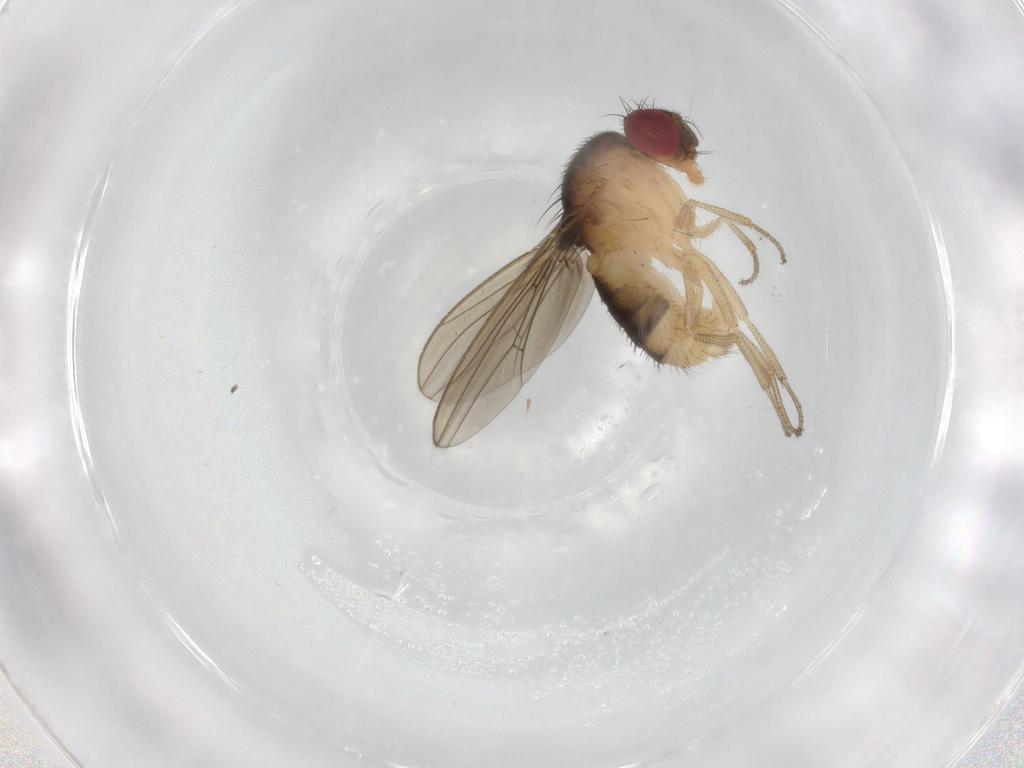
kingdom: Animalia
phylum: Arthropoda
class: Insecta
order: Diptera
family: Drosophilidae
